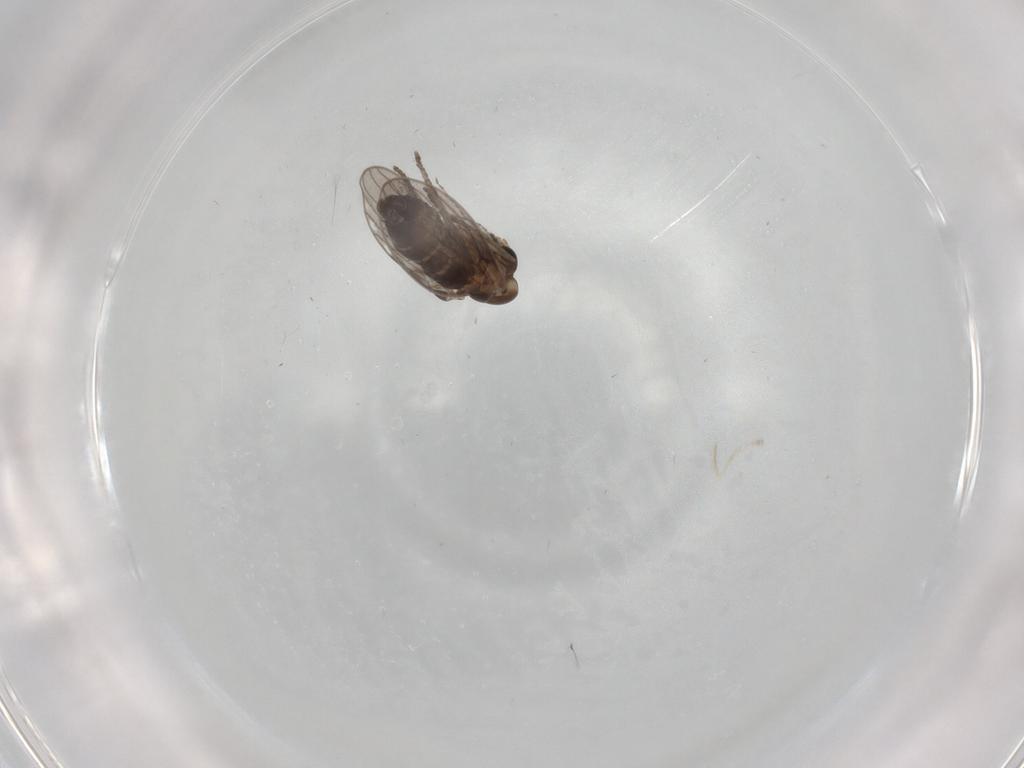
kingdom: Animalia
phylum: Arthropoda
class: Insecta
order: Diptera
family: Psychodidae
